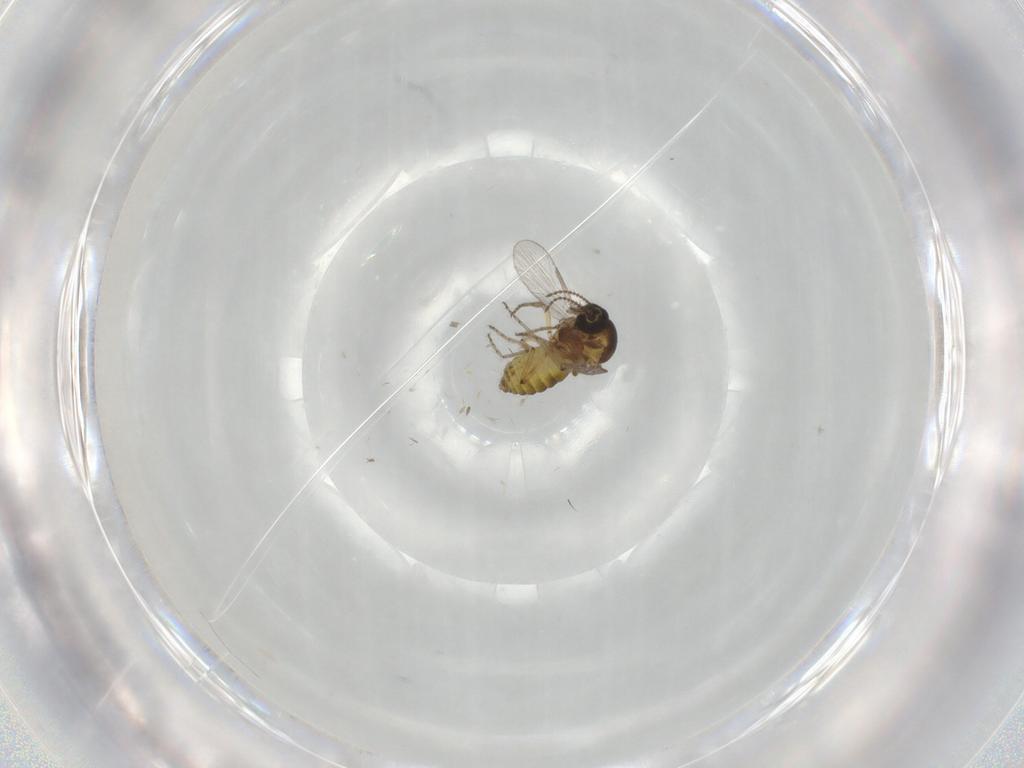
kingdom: Animalia
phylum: Arthropoda
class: Insecta
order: Diptera
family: Ceratopogonidae
